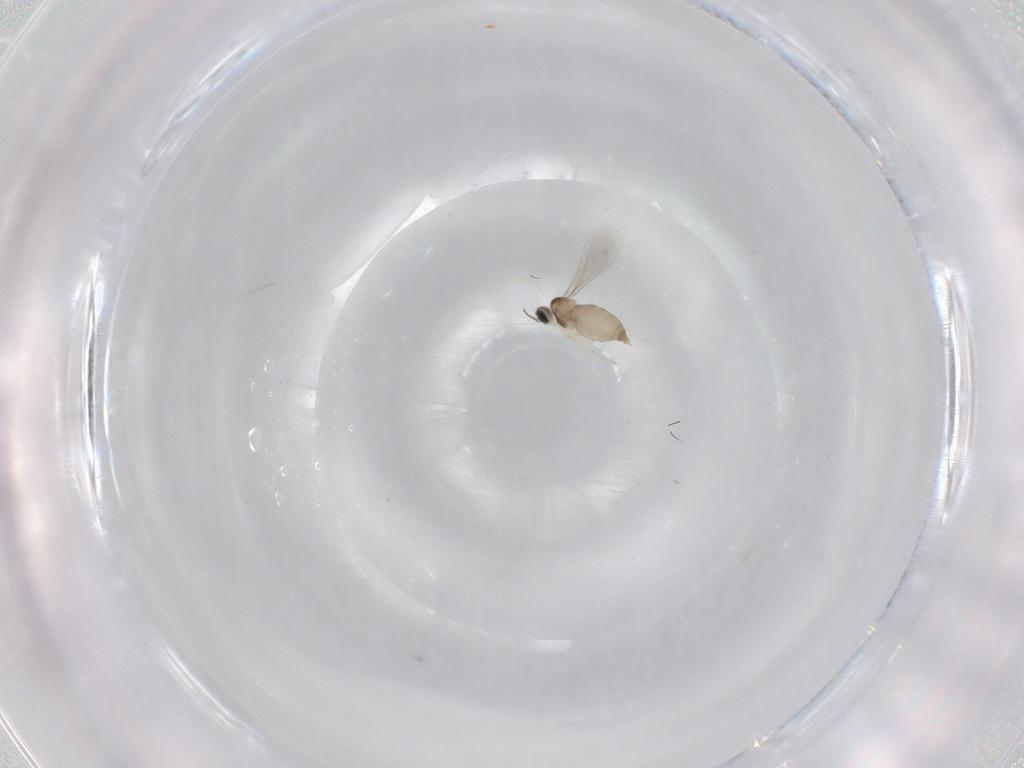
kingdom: Animalia
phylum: Arthropoda
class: Insecta
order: Diptera
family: Cecidomyiidae
